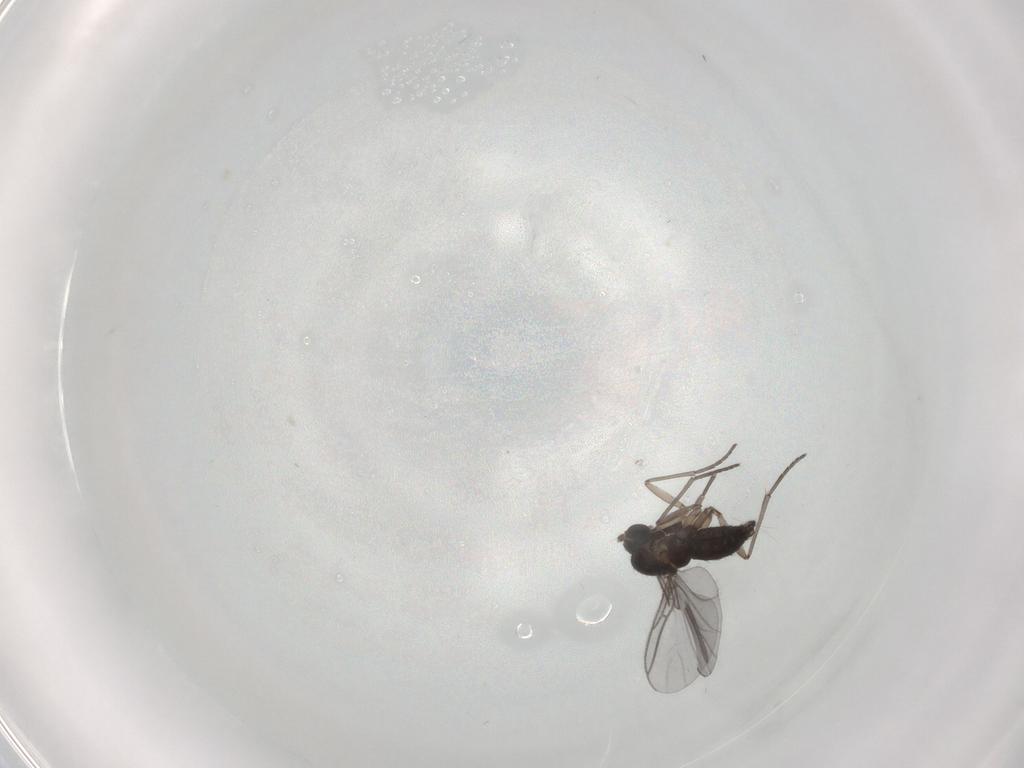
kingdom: Animalia
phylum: Arthropoda
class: Insecta
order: Diptera
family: Sciaridae
